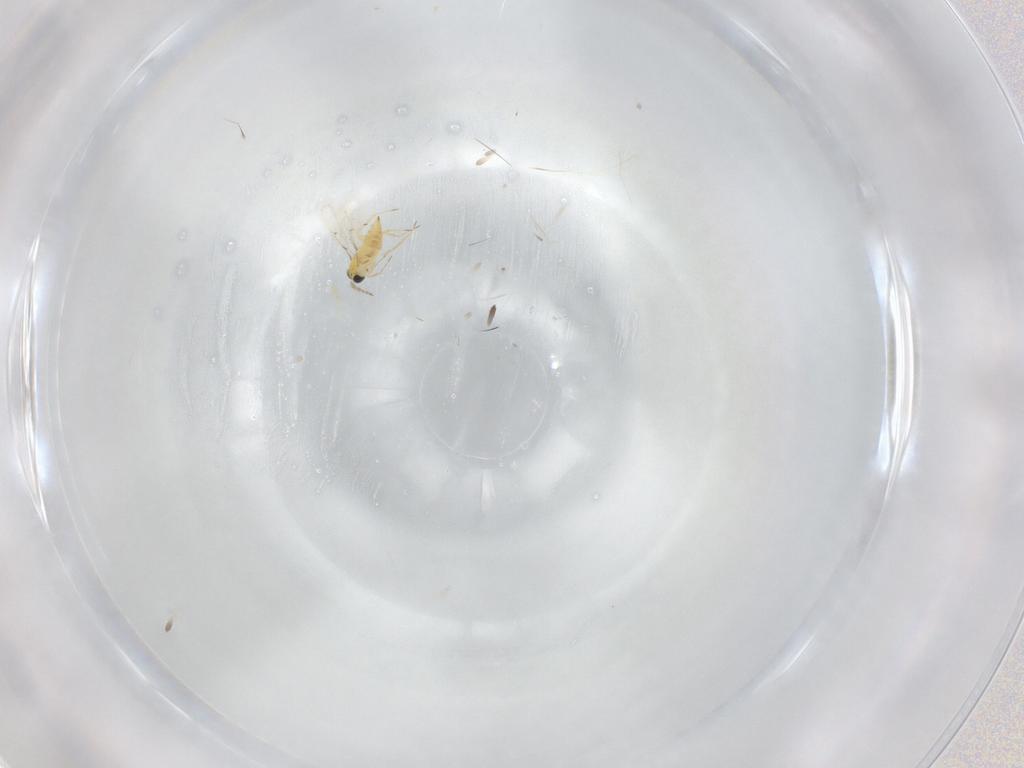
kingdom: Animalia
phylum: Arthropoda
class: Insecta
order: Hymenoptera
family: Trichogrammatidae
